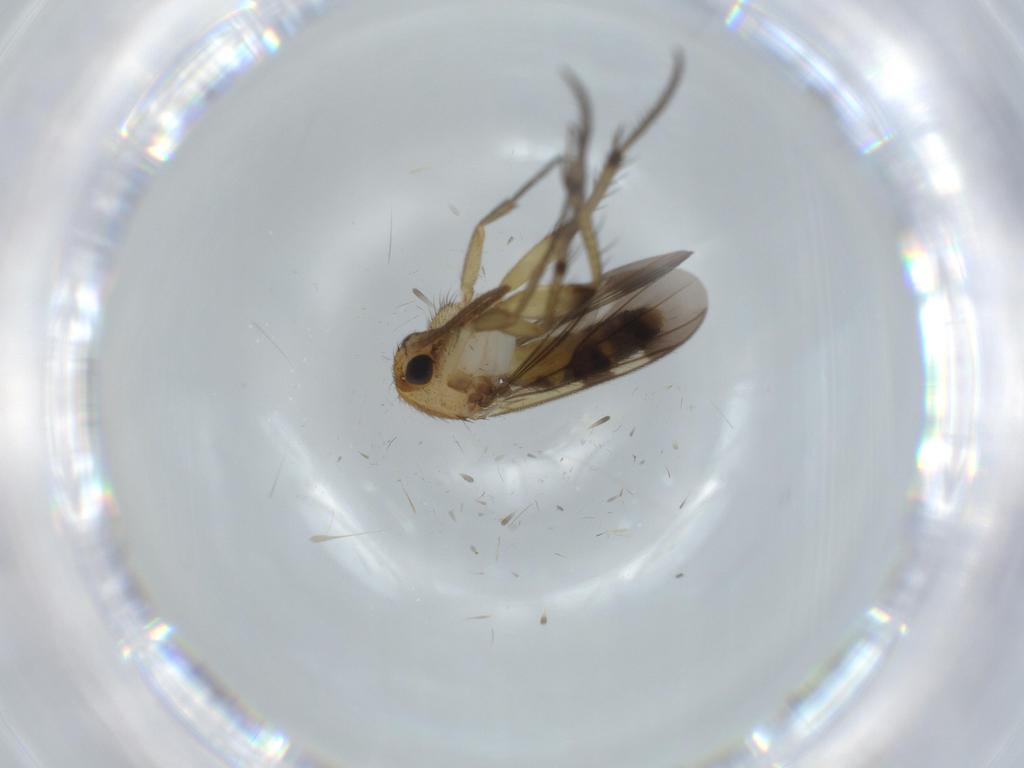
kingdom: Animalia
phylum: Arthropoda
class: Insecta
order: Diptera
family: Phoridae
